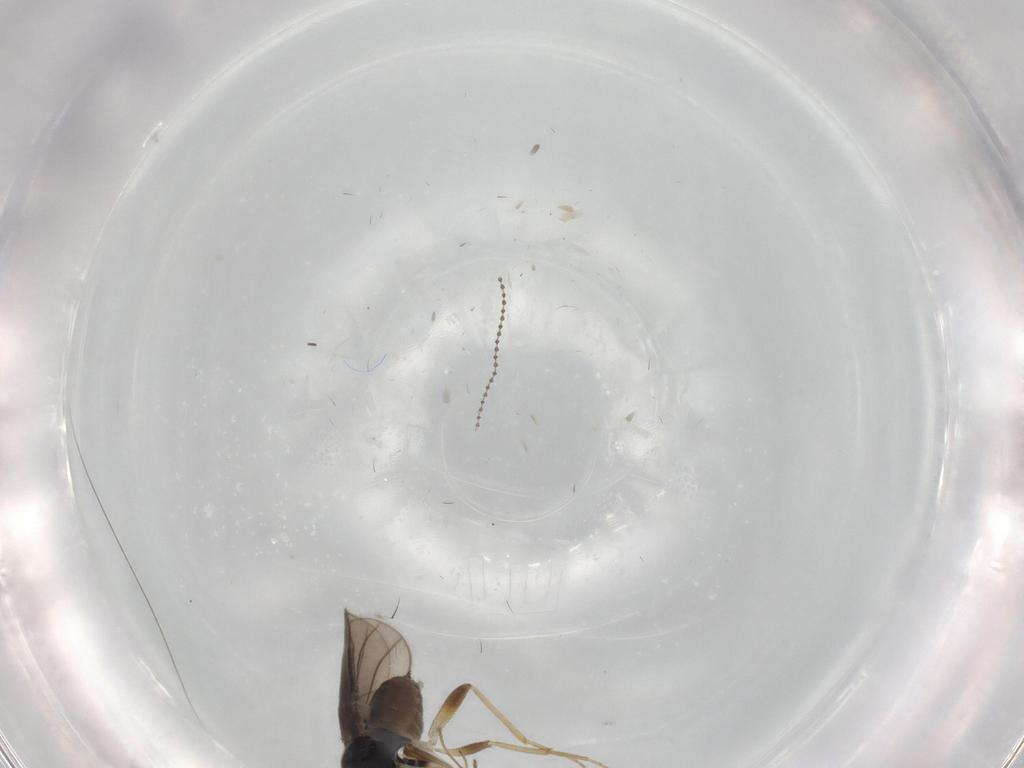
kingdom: Animalia
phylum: Arthropoda
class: Insecta
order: Diptera
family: Hybotidae
